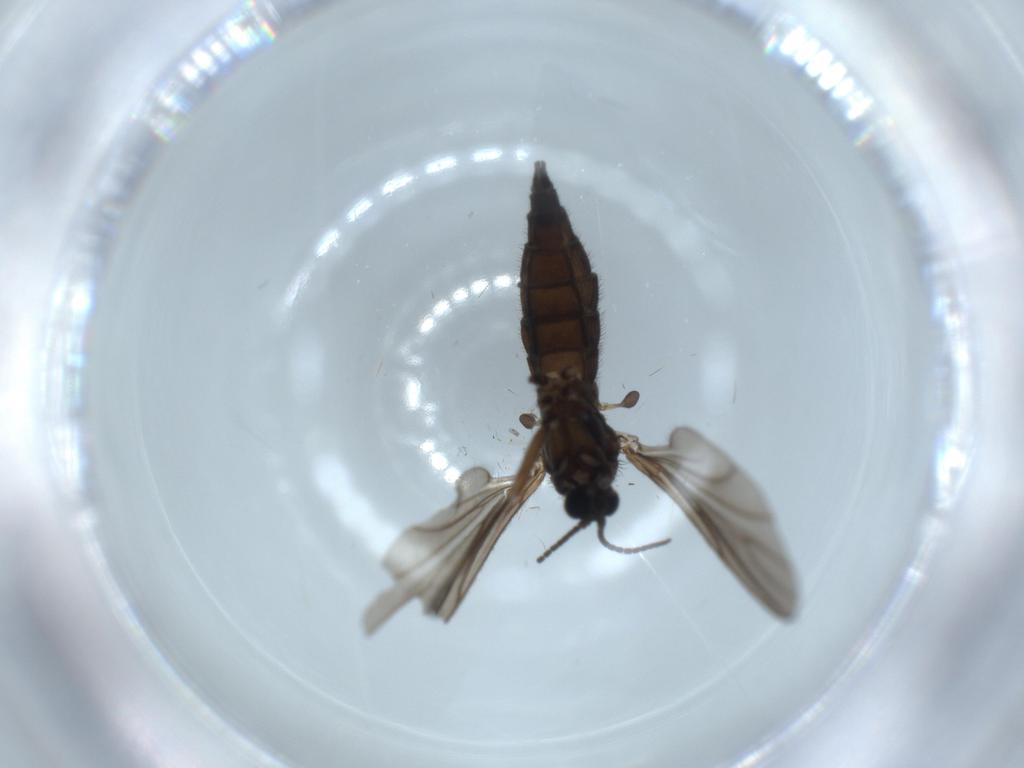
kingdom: Animalia
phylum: Arthropoda
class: Insecta
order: Diptera
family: Sciaridae
